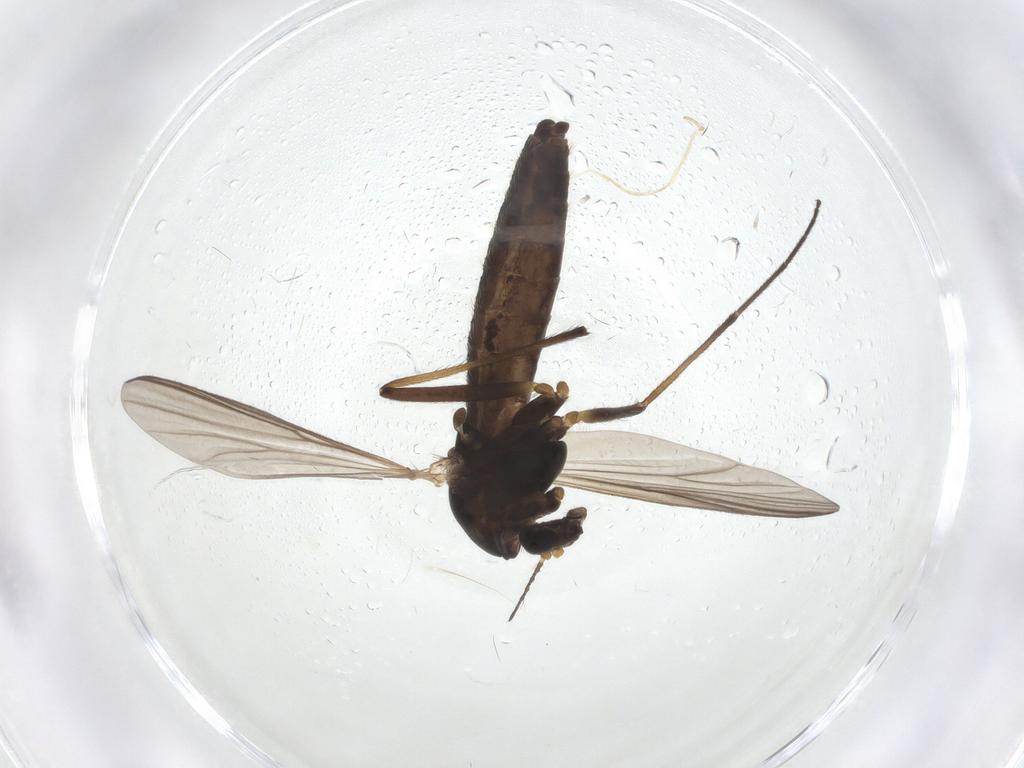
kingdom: Animalia
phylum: Arthropoda
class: Insecta
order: Diptera
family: Chironomidae
